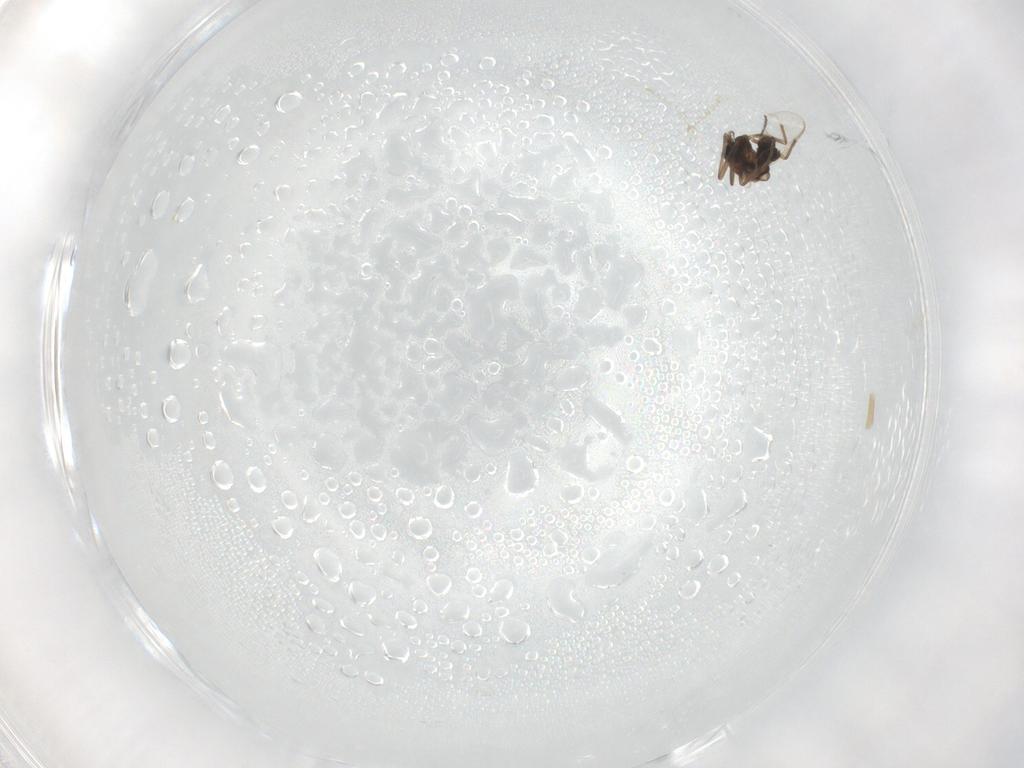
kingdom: Animalia
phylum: Arthropoda
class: Insecta
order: Diptera
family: Chironomidae
